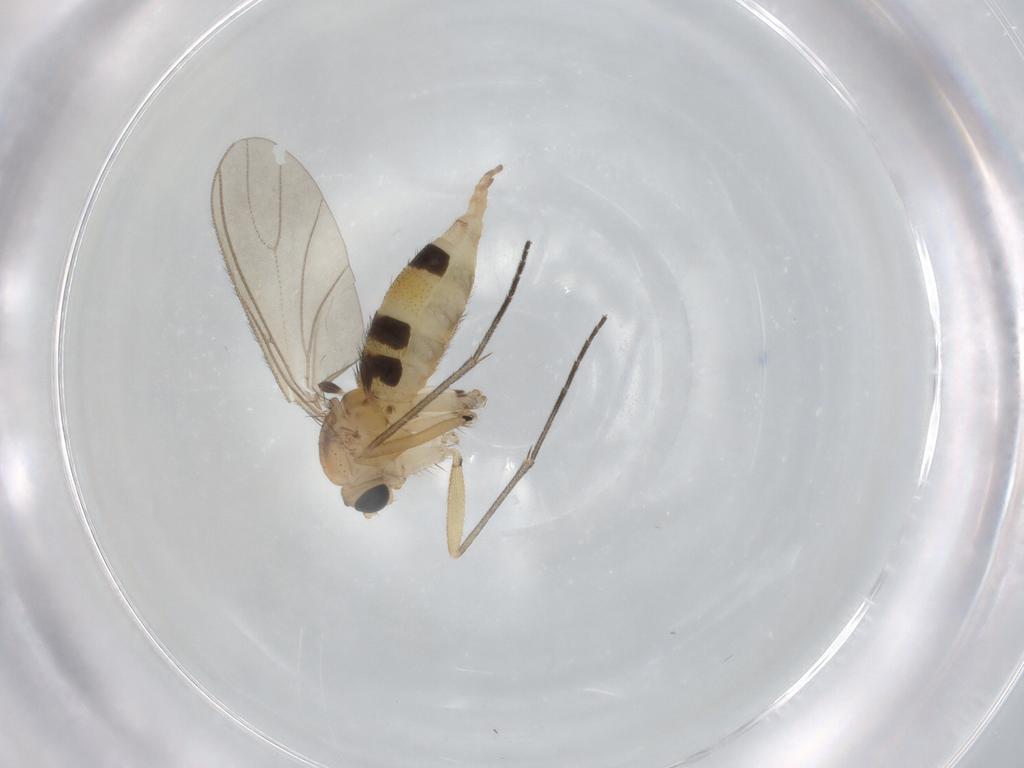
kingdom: Animalia
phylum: Arthropoda
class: Insecta
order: Diptera
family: Sciaridae
